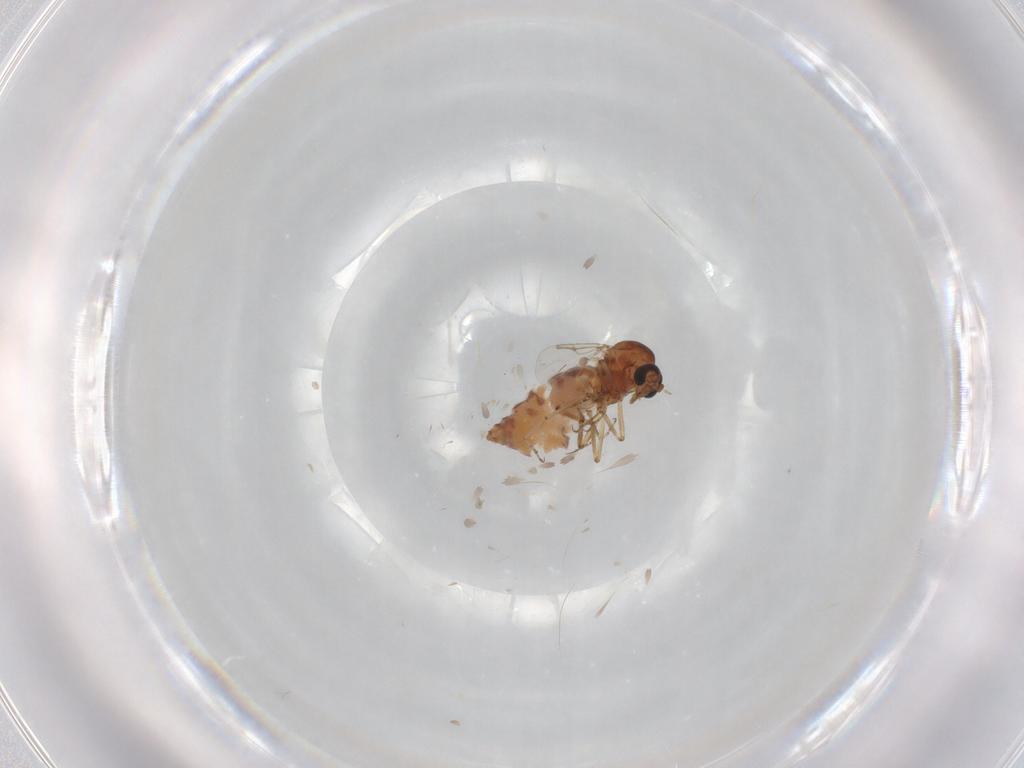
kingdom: Animalia
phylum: Arthropoda
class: Insecta
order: Diptera
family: Ceratopogonidae
